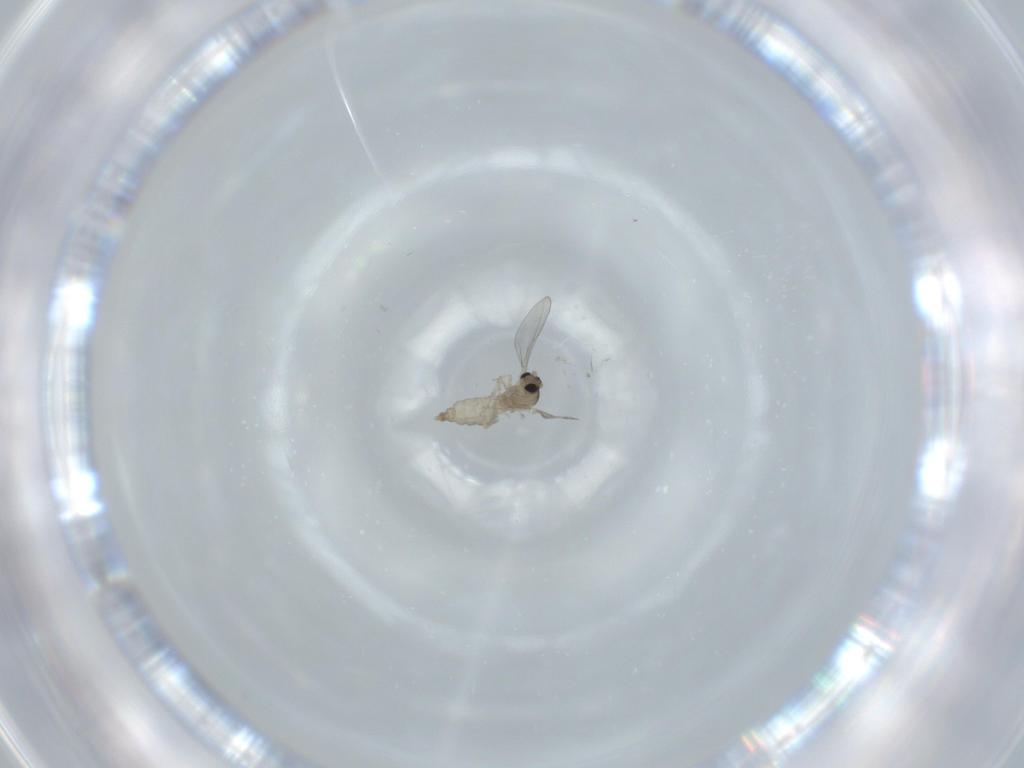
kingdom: Animalia
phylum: Arthropoda
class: Insecta
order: Diptera
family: Cecidomyiidae
